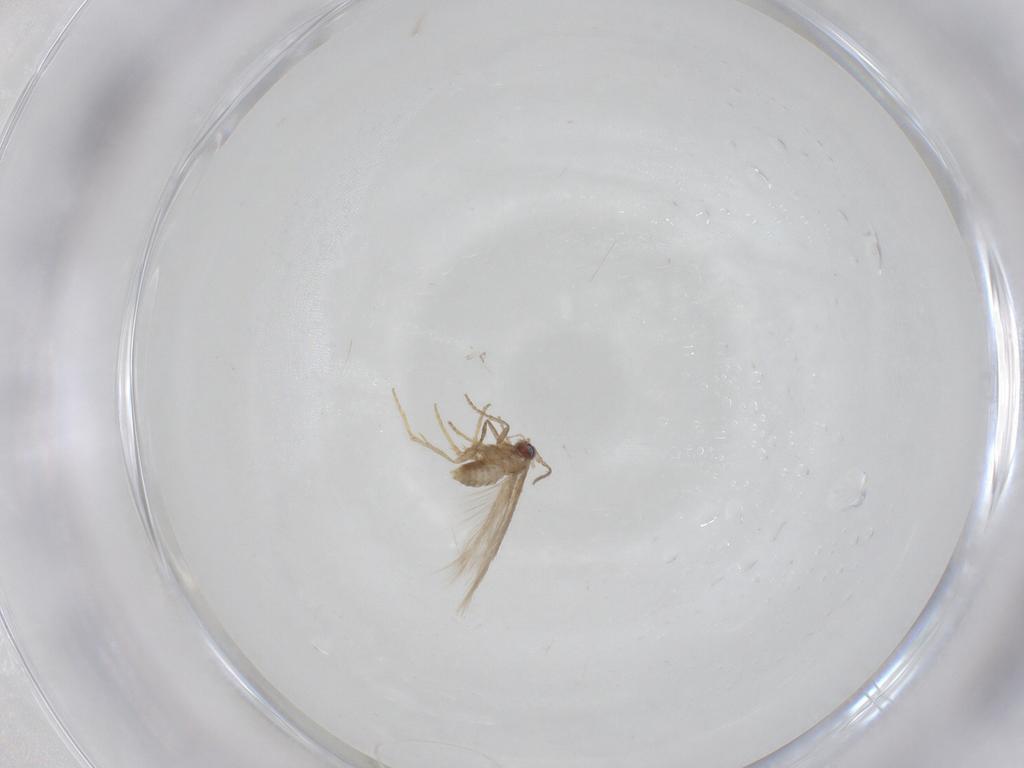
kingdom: Animalia
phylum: Arthropoda
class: Insecta
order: Lepidoptera
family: Nepticulidae
